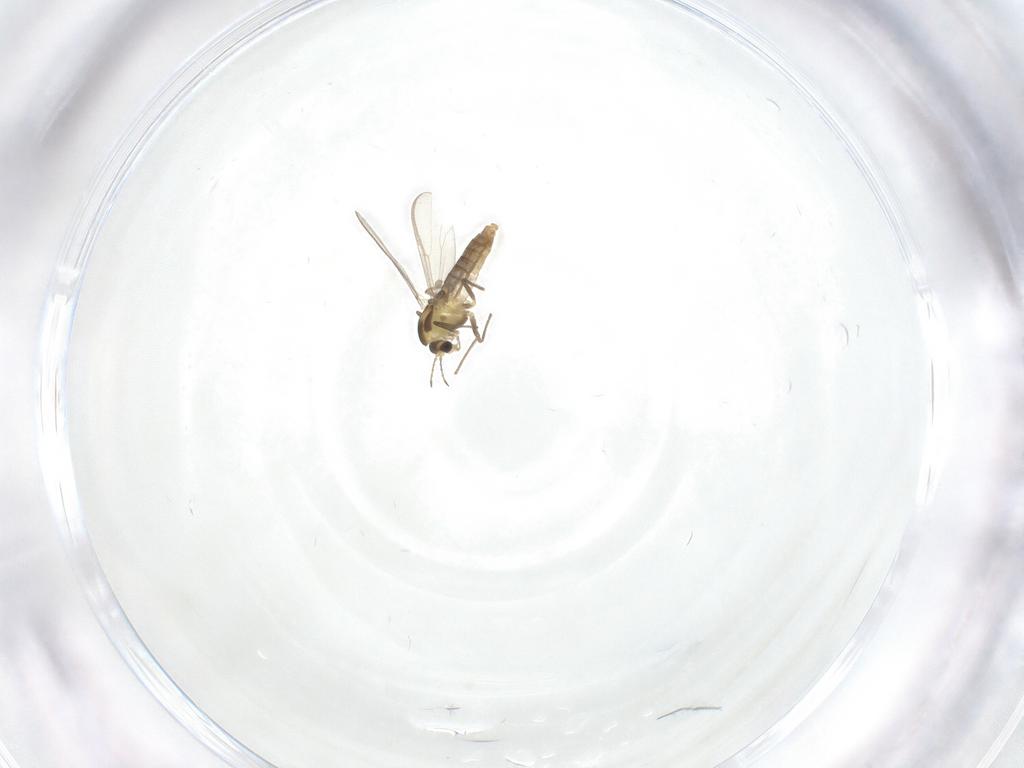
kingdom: Animalia
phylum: Arthropoda
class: Insecta
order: Diptera
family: Chironomidae
